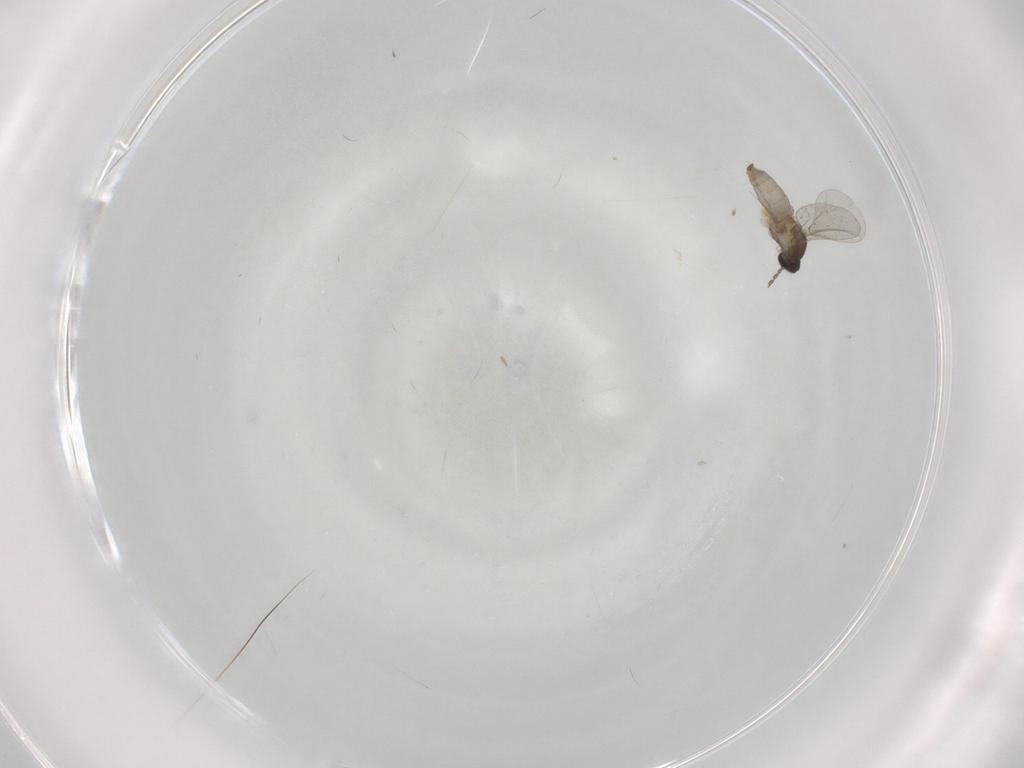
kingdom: Animalia
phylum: Arthropoda
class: Insecta
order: Diptera
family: Cecidomyiidae
